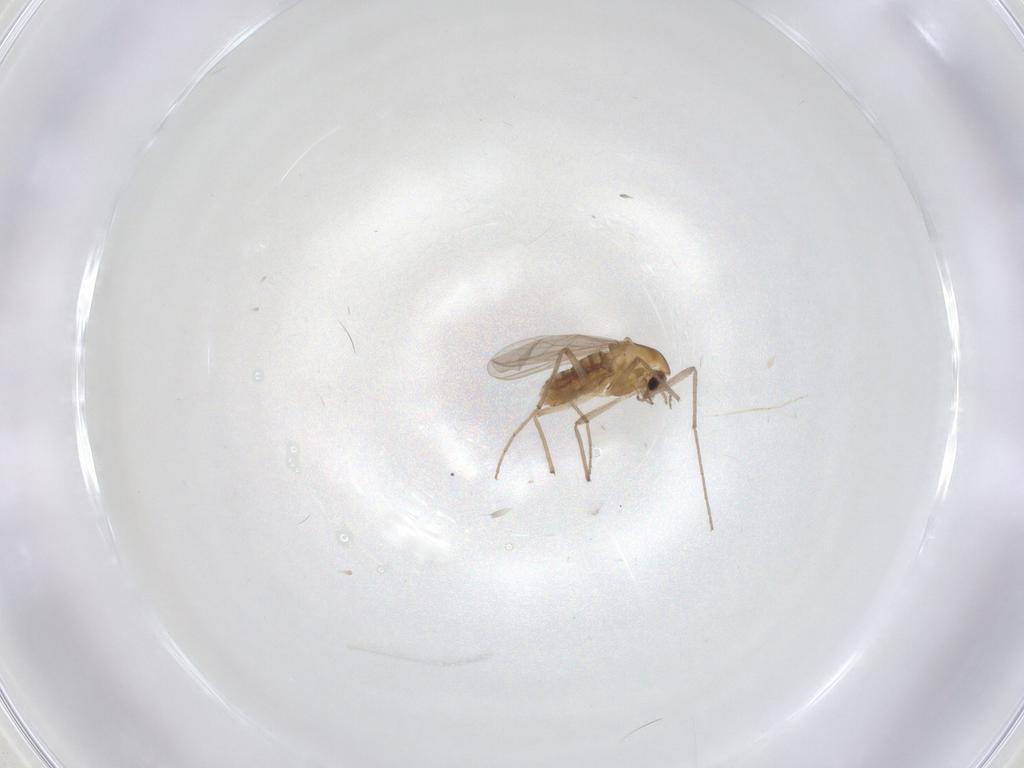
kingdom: Animalia
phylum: Arthropoda
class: Insecta
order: Diptera
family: Chironomidae
